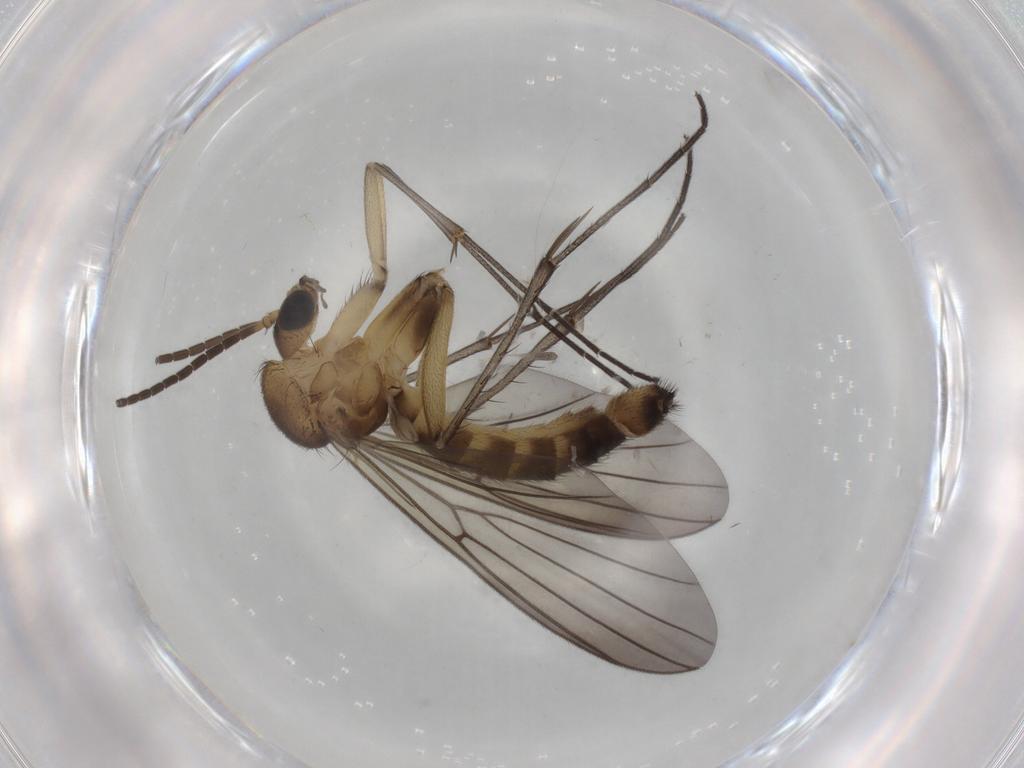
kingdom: Animalia
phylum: Arthropoda
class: Insecta
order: Diptera
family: Mycetophilidae
